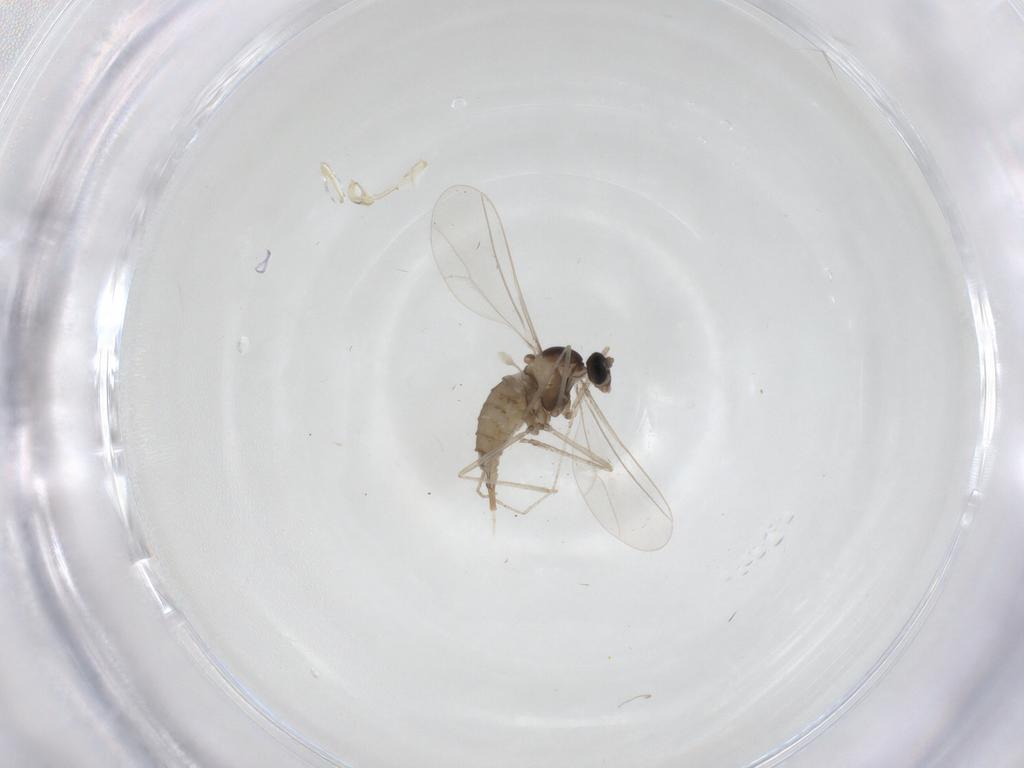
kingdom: Animalia
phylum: Arthropoda
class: Insecta
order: Diptera
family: Cecidomyiidae
